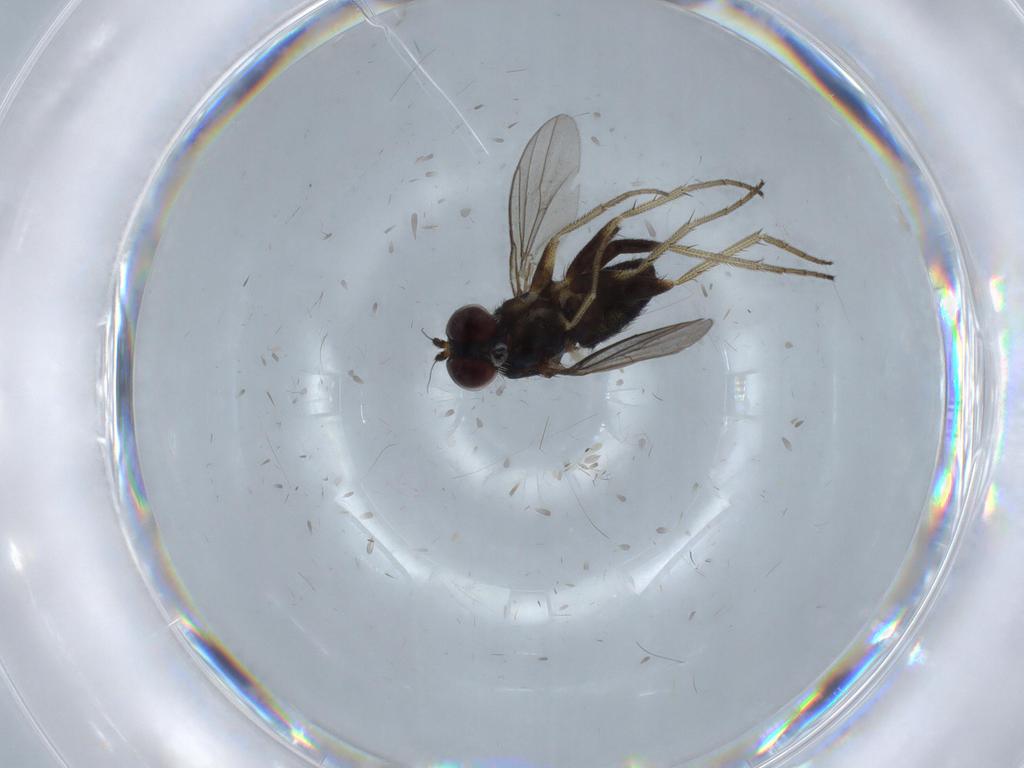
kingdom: Animalia
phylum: Arthropoda
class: Insecta
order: Diptera
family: Dolichopodidae
